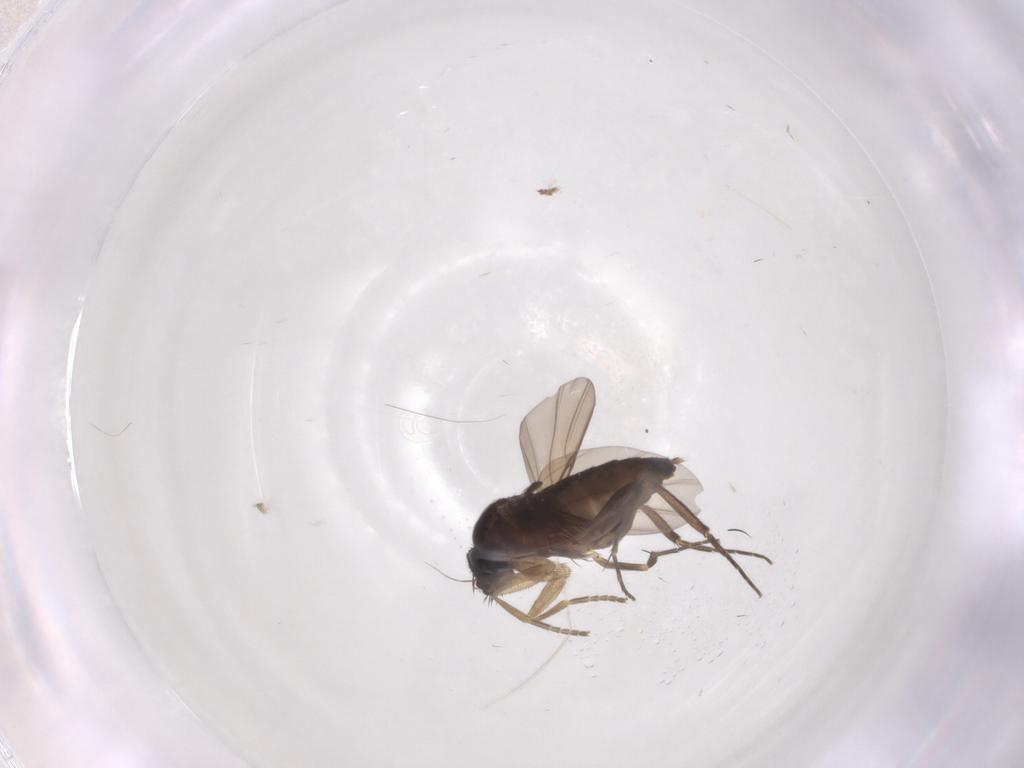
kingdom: Animalia
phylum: Arthropoda
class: Insecta
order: Diptera
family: Phoridae
